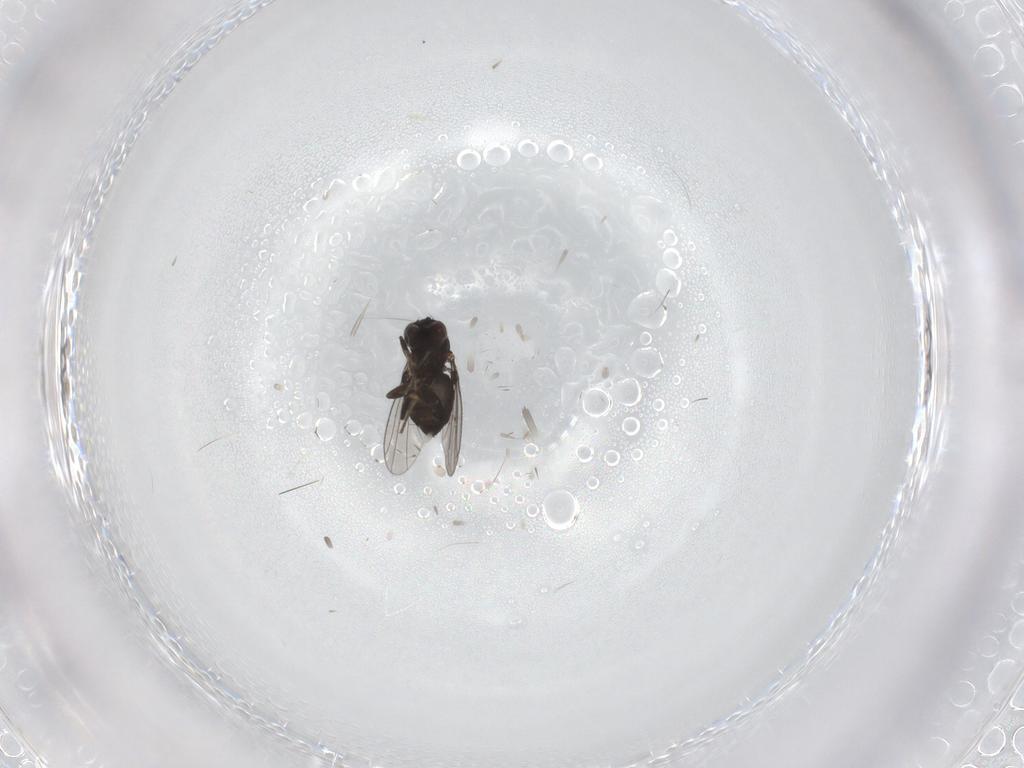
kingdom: Animalia
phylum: Arthropoda
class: Insecta
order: Diptera
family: Dolichopodidae
